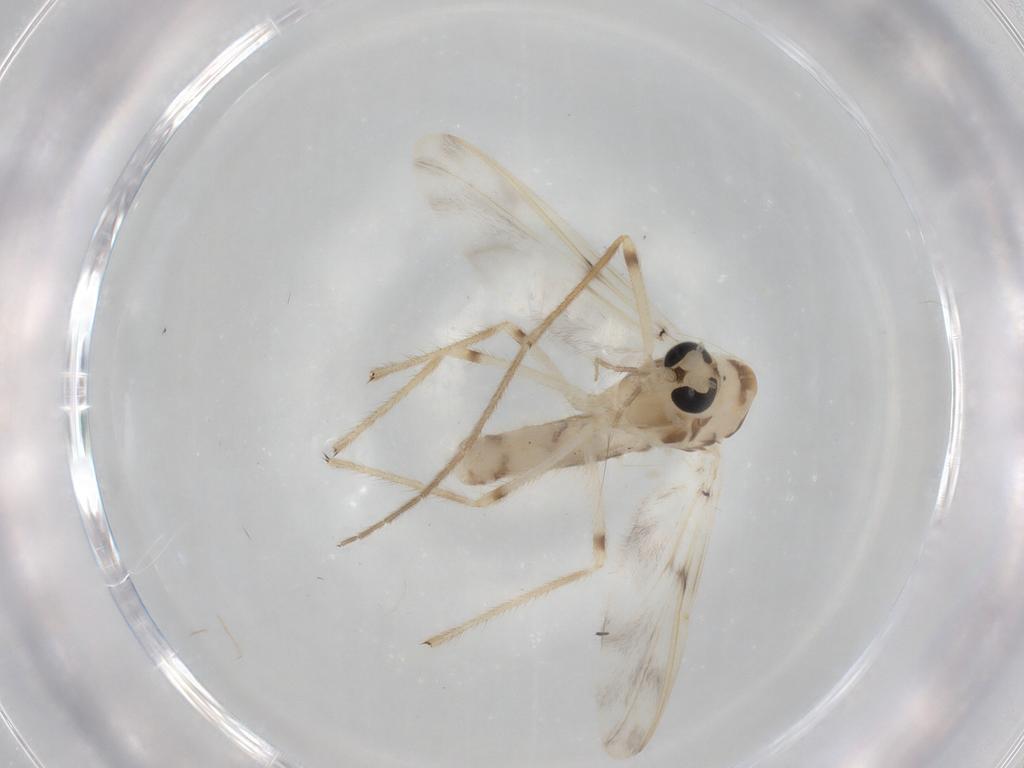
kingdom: Animalia
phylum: Arthropoda
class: Insecta
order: Diptera
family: Chironomidae
